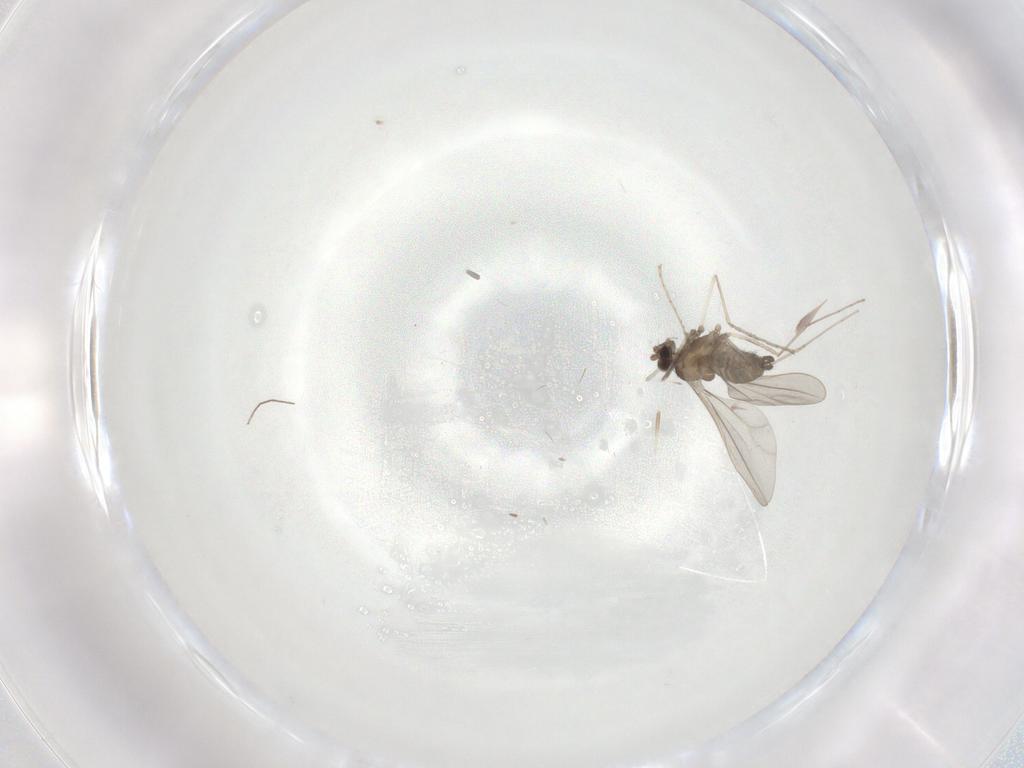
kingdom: Animalia
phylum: Arthropoda
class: Insecta
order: Diptera
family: Chironomidae
